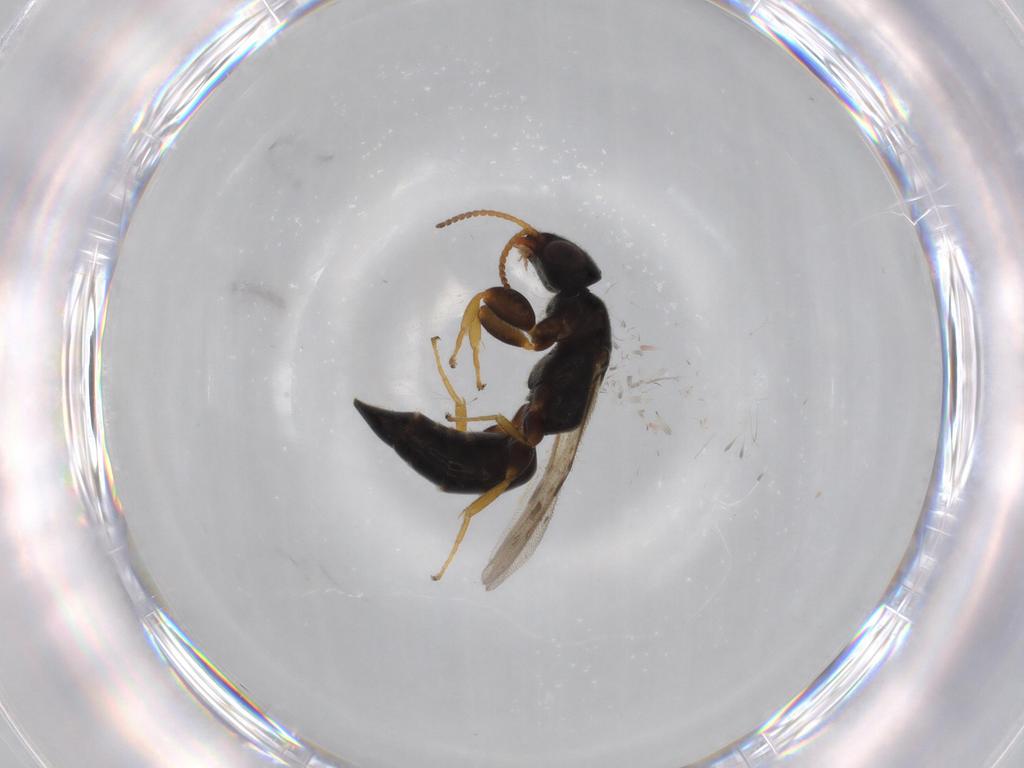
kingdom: Animalia
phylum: Arthropoda
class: Insecta
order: Hymenoptera
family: Bethylidae
